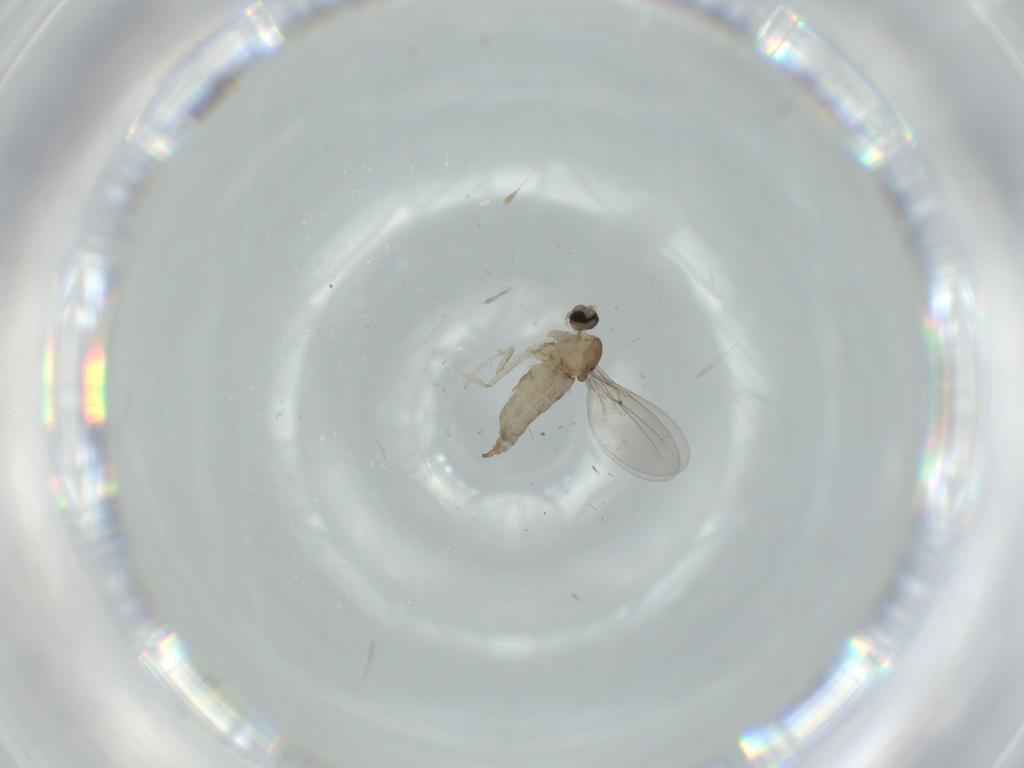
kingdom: Animalia
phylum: Arthropoda
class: Insecta
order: Diptera
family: Chironomidae
